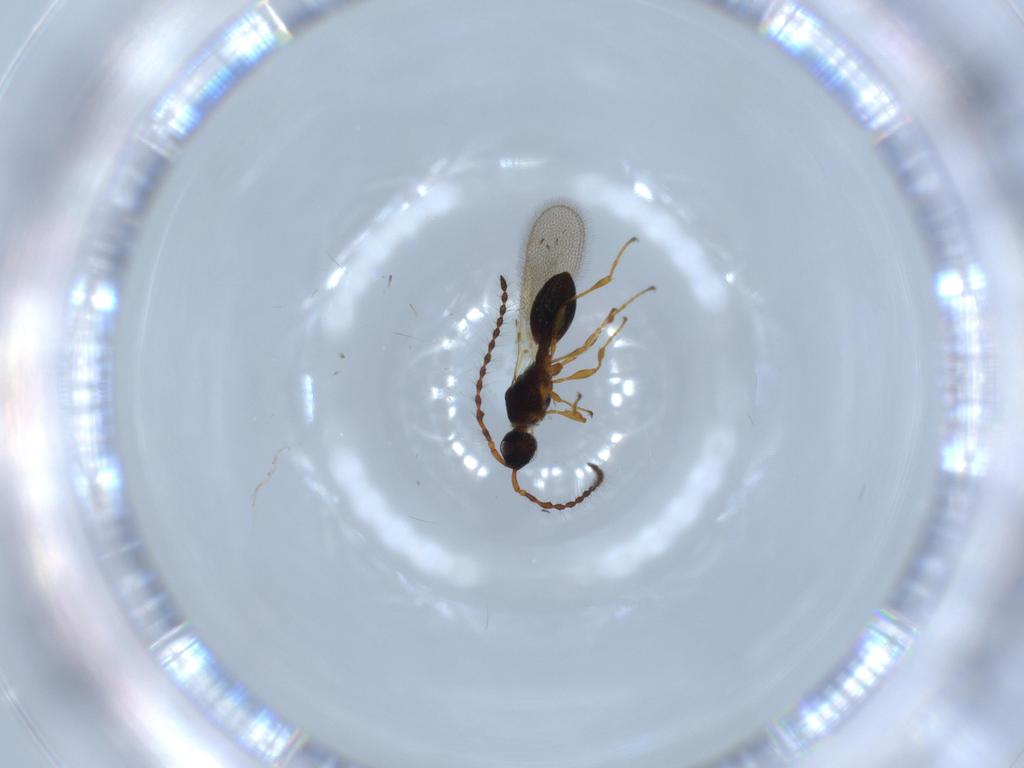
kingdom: Animalia
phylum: Arthropoda
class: Insecta
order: Hymenoptera
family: Diapriidae
